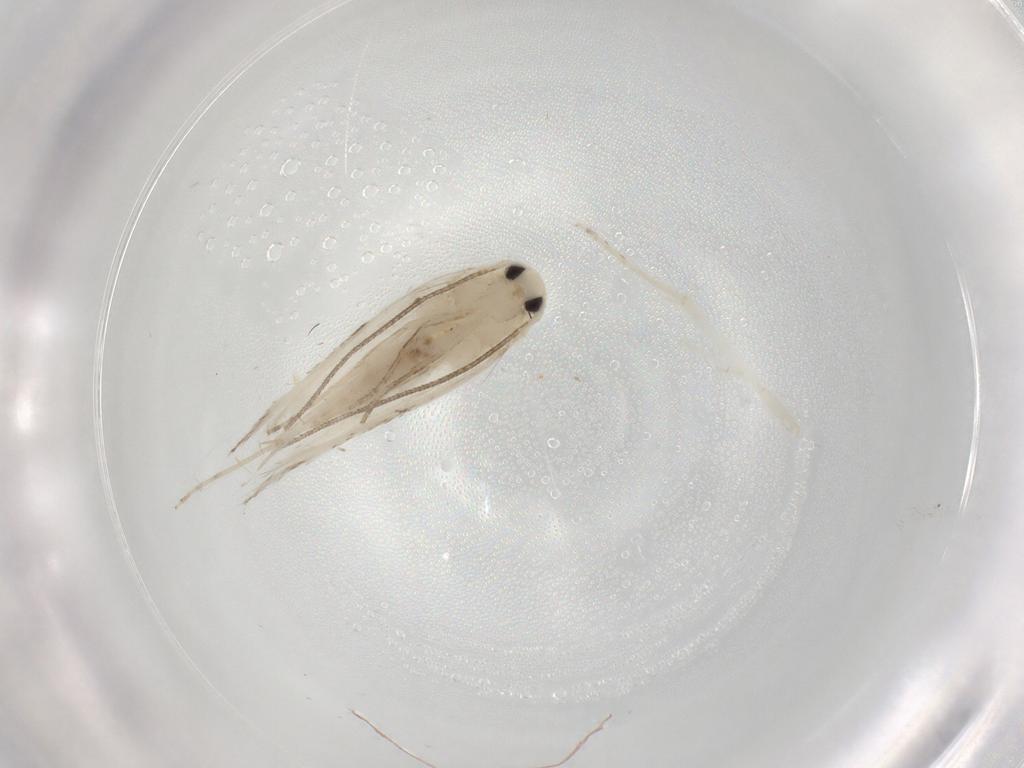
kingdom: Animalia
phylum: Arthropoda
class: Insecta
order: Lepidoptera
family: Lyonetiidae
